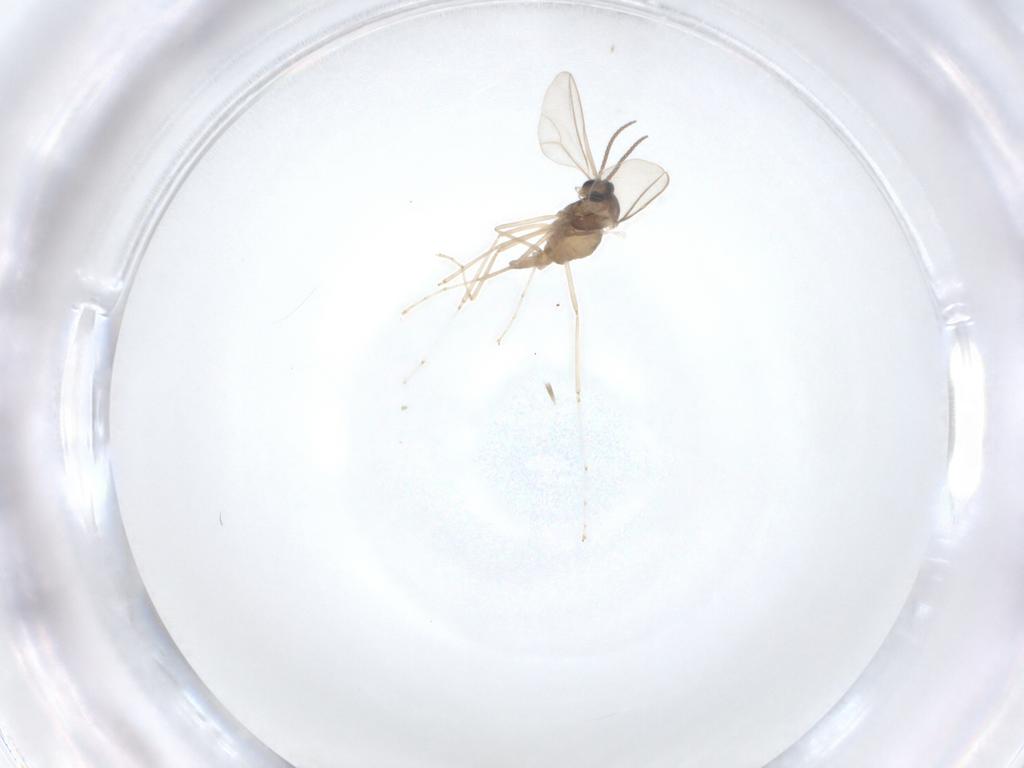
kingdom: Animalia
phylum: Arthropoda
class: Insecta
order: Diptera
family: Cecidomyiidae
